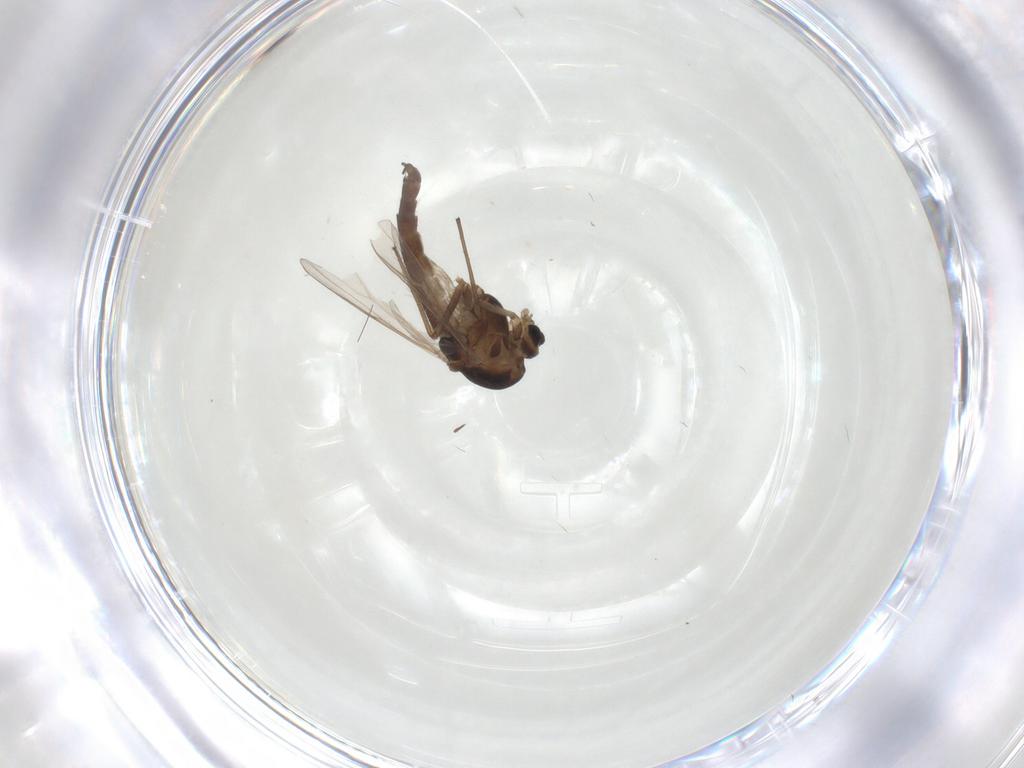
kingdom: Animalia
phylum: Arthropoda
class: Insecta
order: Diptera
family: Chironomidae
